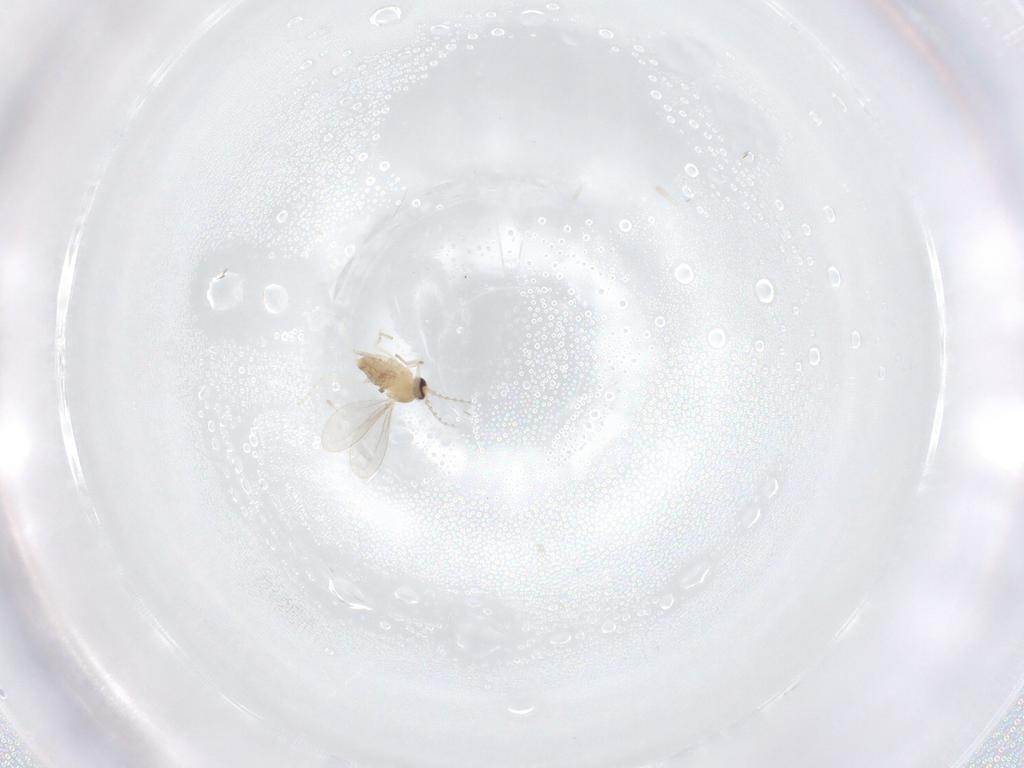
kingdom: Animalia
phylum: Arthropoda
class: Insecta
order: Diptera
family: Cecidomyiidae
